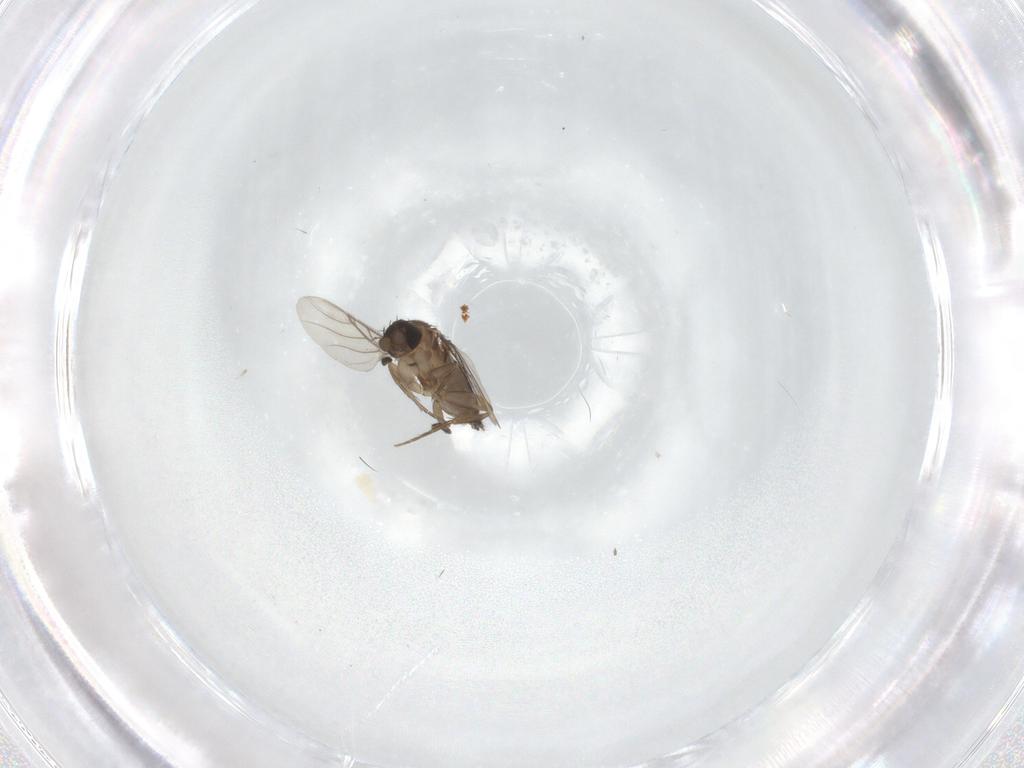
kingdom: Animalia
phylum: Arthropoda
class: Insecta
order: Diptera
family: Phoridae
